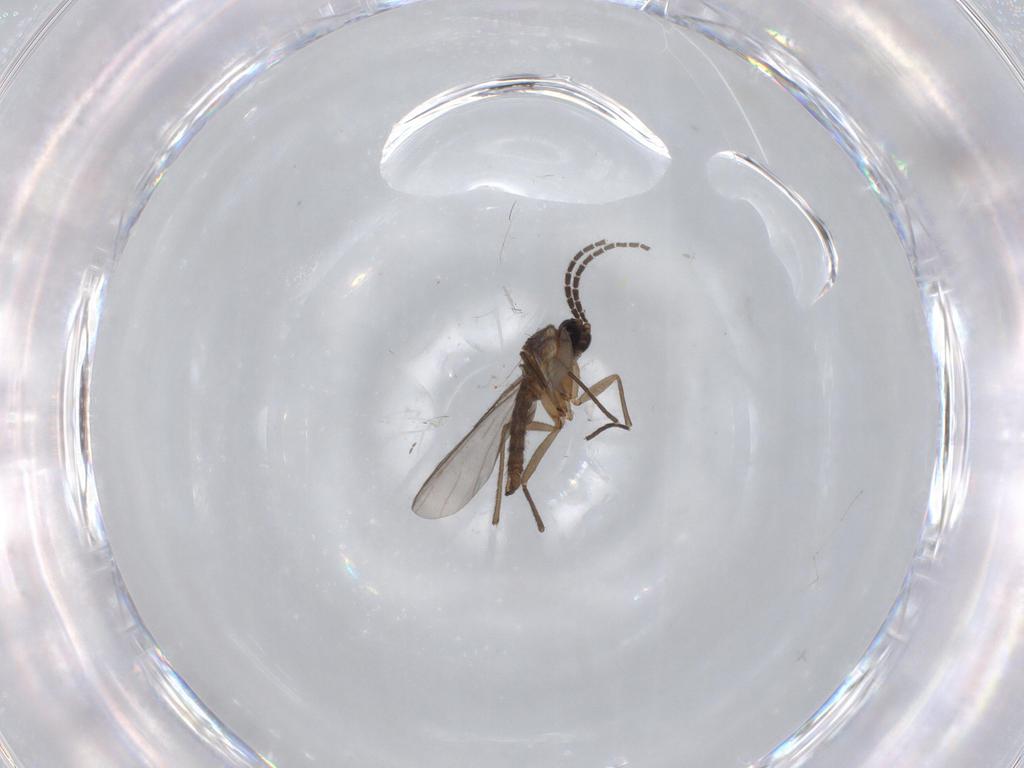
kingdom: Animalia
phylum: Arthropoda
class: Insecta
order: Diptera
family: Sciaridae
